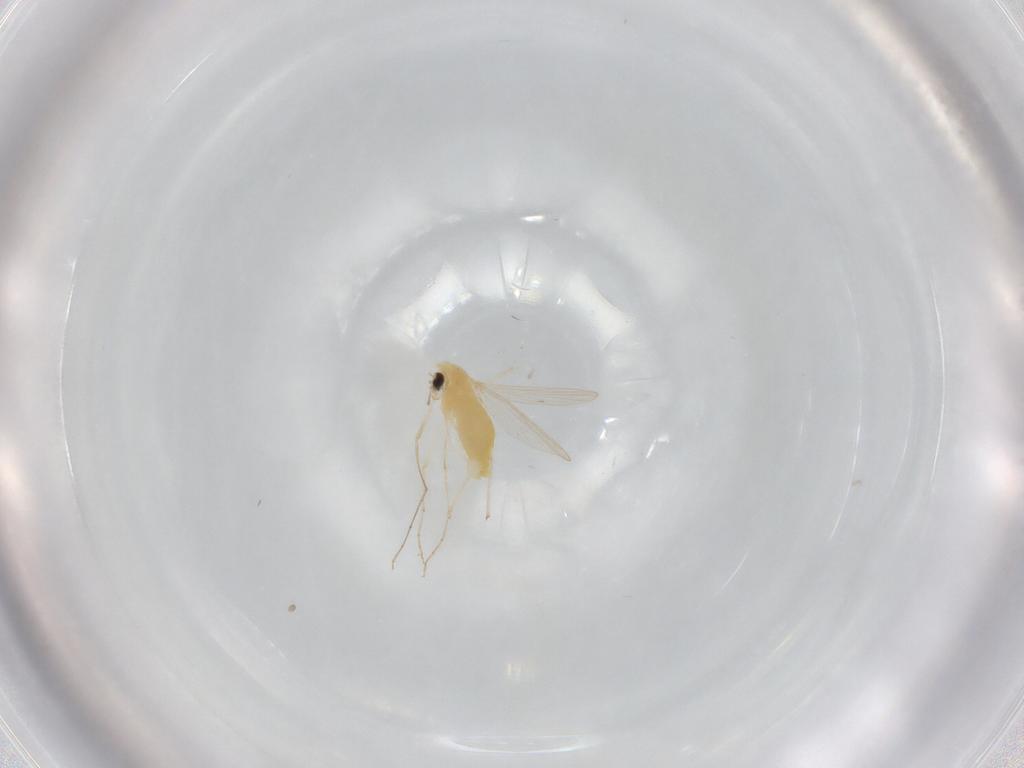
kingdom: Animalia
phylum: Arthropoda
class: Insecta
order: Diptera
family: Chironomidae
